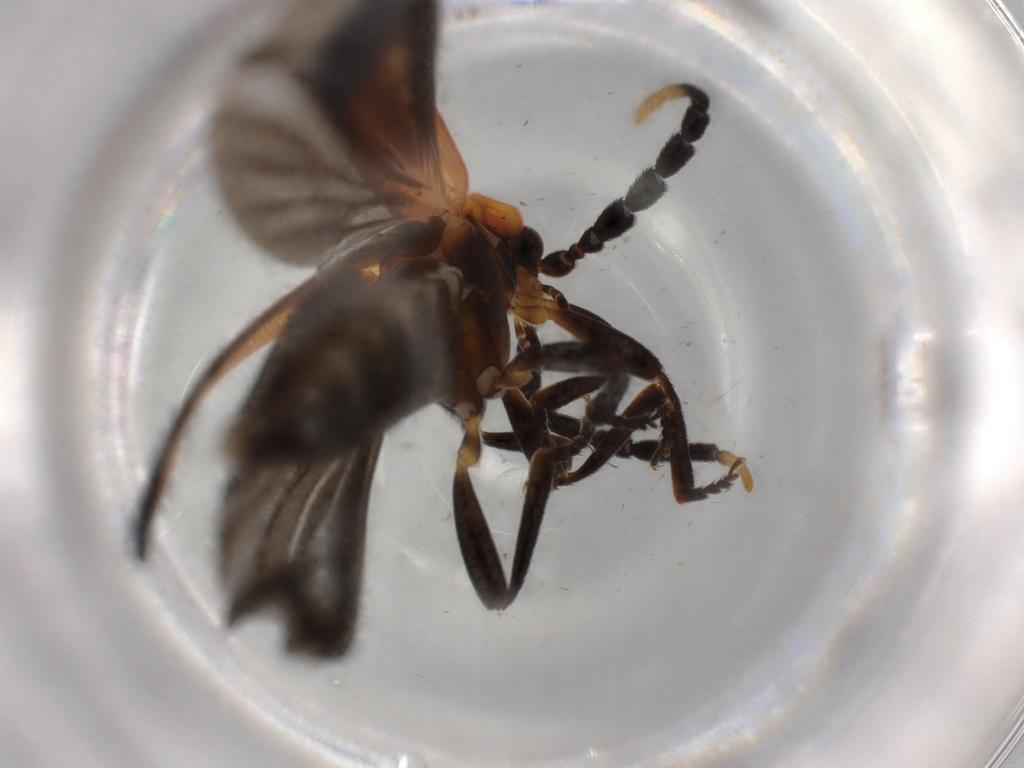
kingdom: Animalia
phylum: Arthropoda
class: Insecta
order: Coleoptera
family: Lycidae
